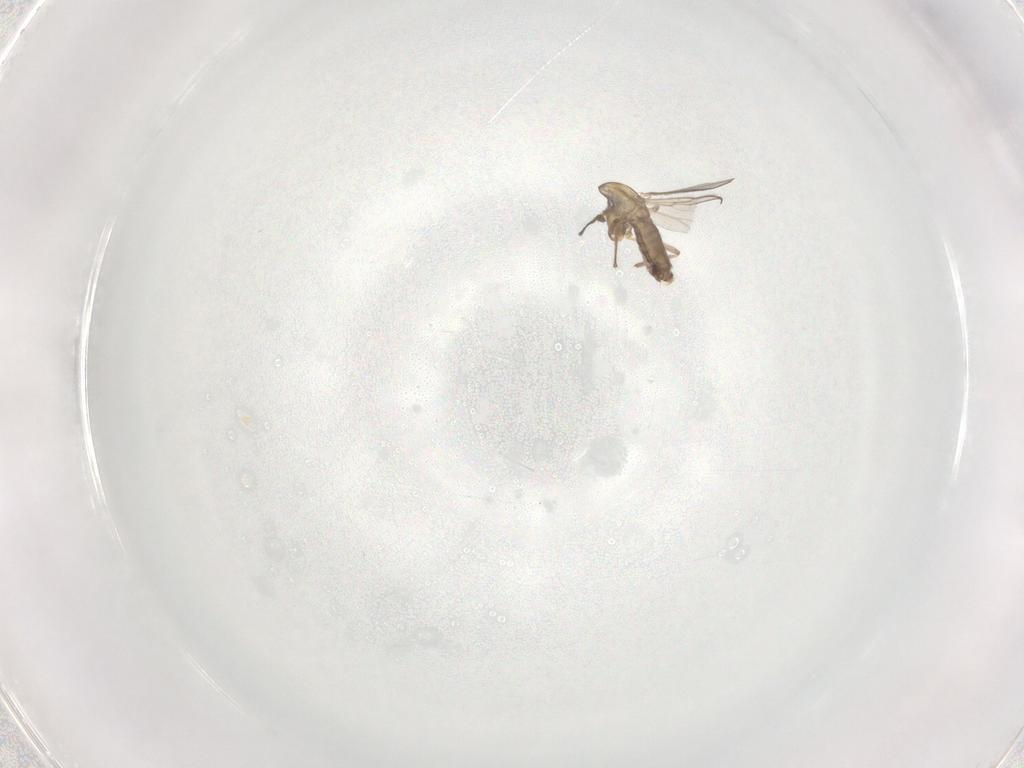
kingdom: Animalia
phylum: Arthropoda
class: Insecta
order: Diptera
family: Chironomidae
